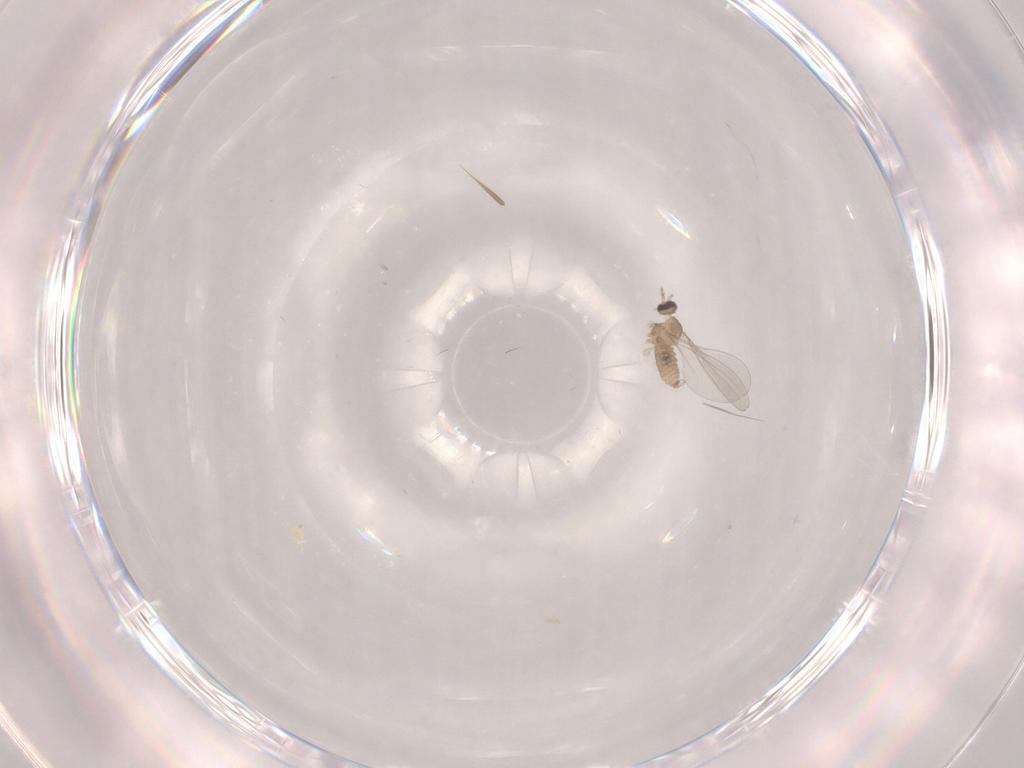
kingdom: Animalia
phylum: Arthropoda
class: Insecta
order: Diptera
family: Cecidomyiidae
